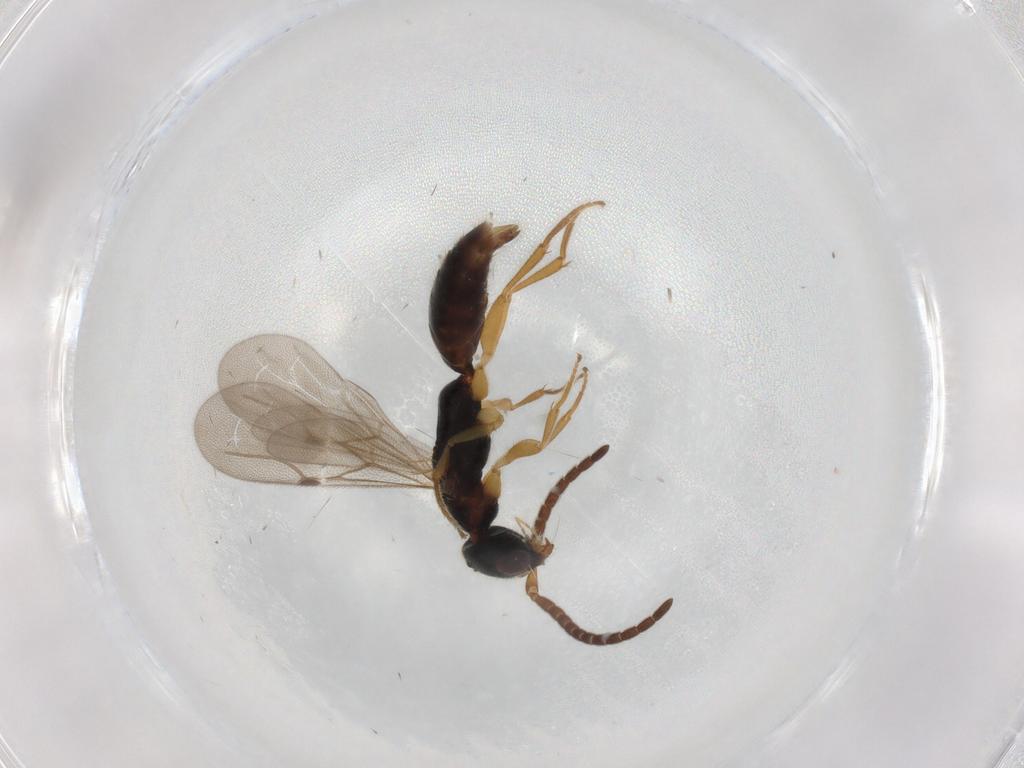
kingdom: Animalia
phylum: Arthropoda
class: Insecta
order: Hymenoptera
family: Bethylidae
